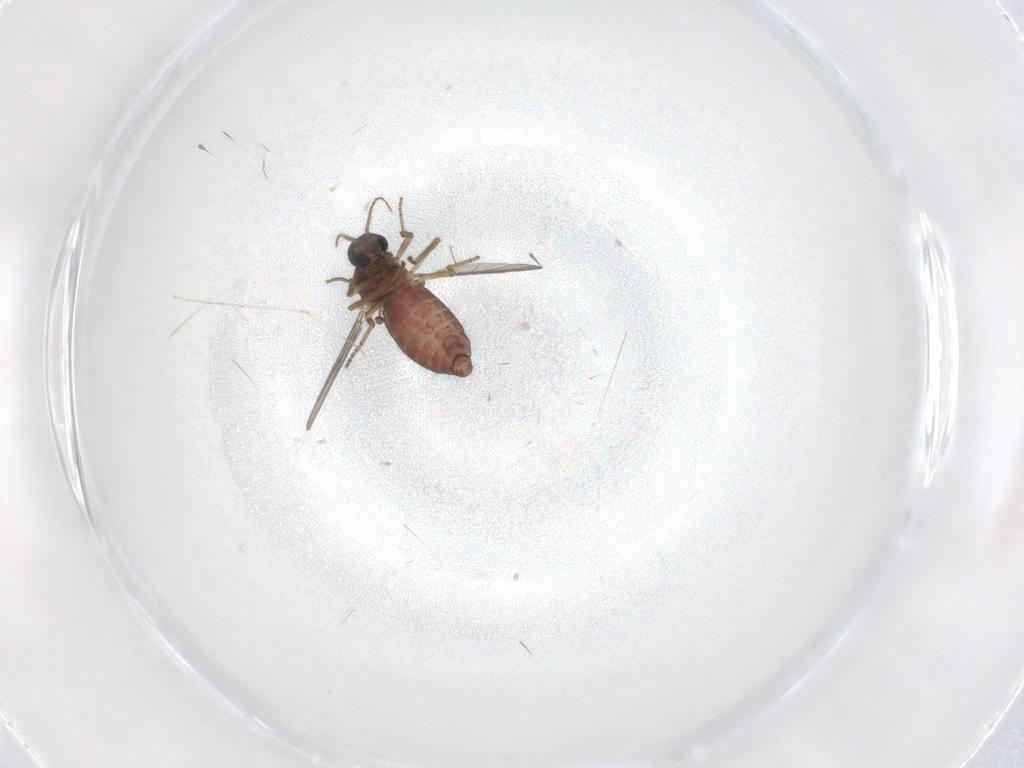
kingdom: Animalia
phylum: Arthropoda
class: Insecta
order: Diptera
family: Ceratopogonidae
